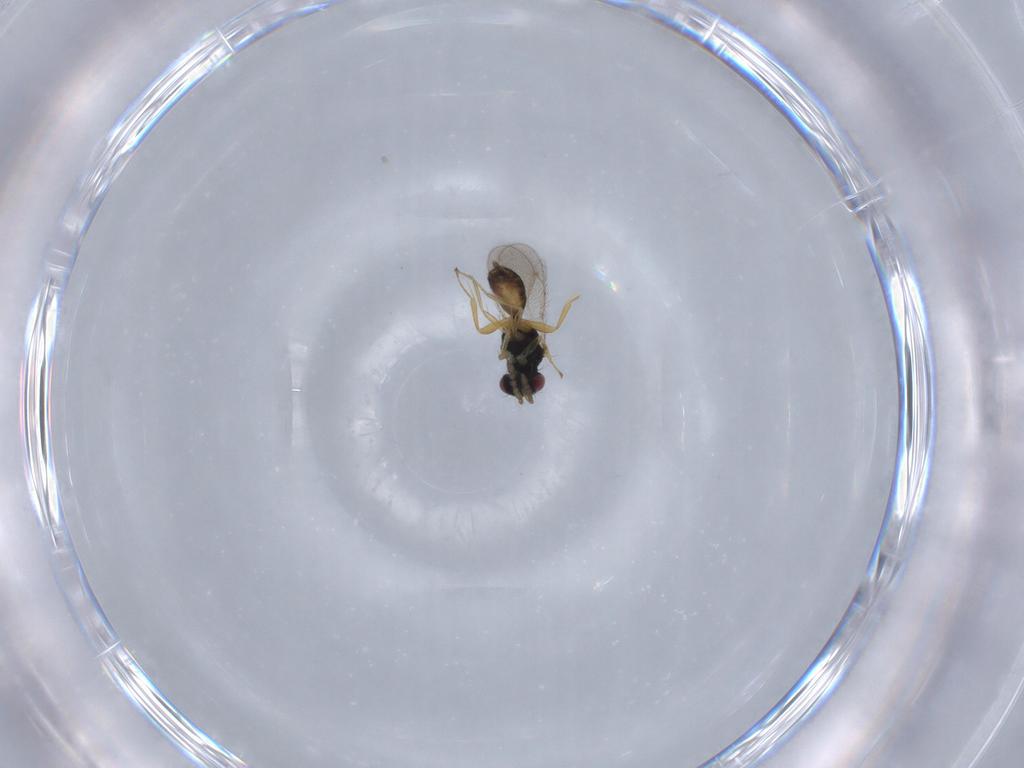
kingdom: Animalia
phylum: Arthropoda
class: Insecta
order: Hymenoptera
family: Eulophidae
